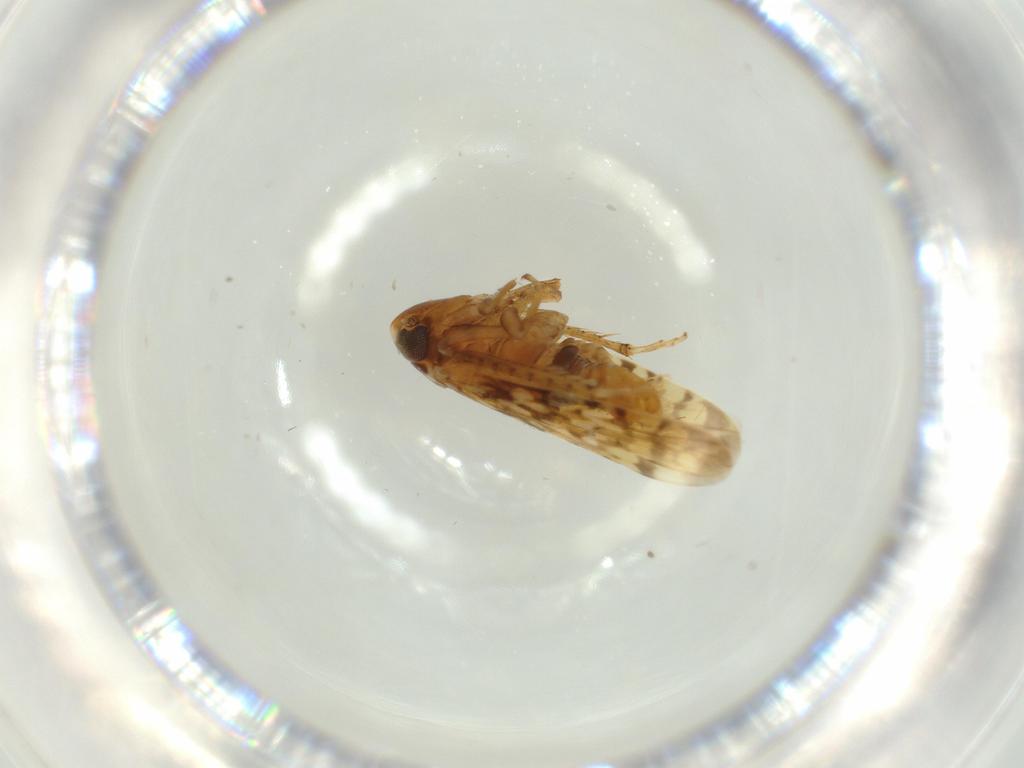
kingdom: Animalia
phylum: Arthropoda
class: Insecta
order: Hemiptera
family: Cicadellidae
